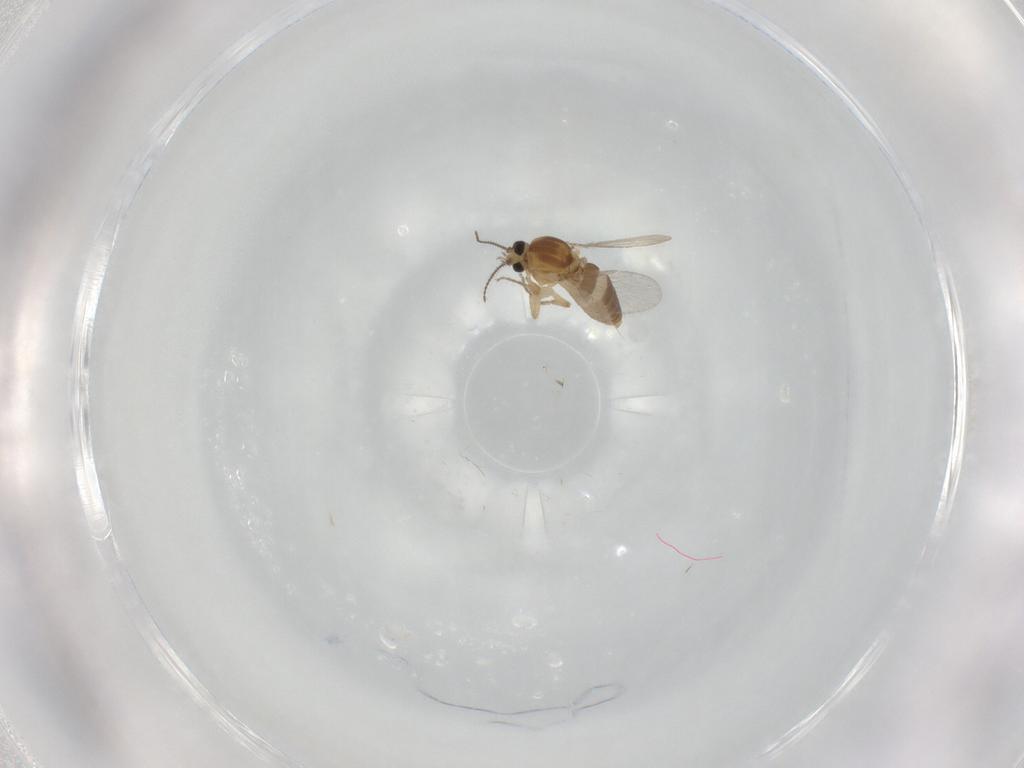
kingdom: Animalia
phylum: Arthropoda
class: Insecta
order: Diptera
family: Ceratopogonidae
